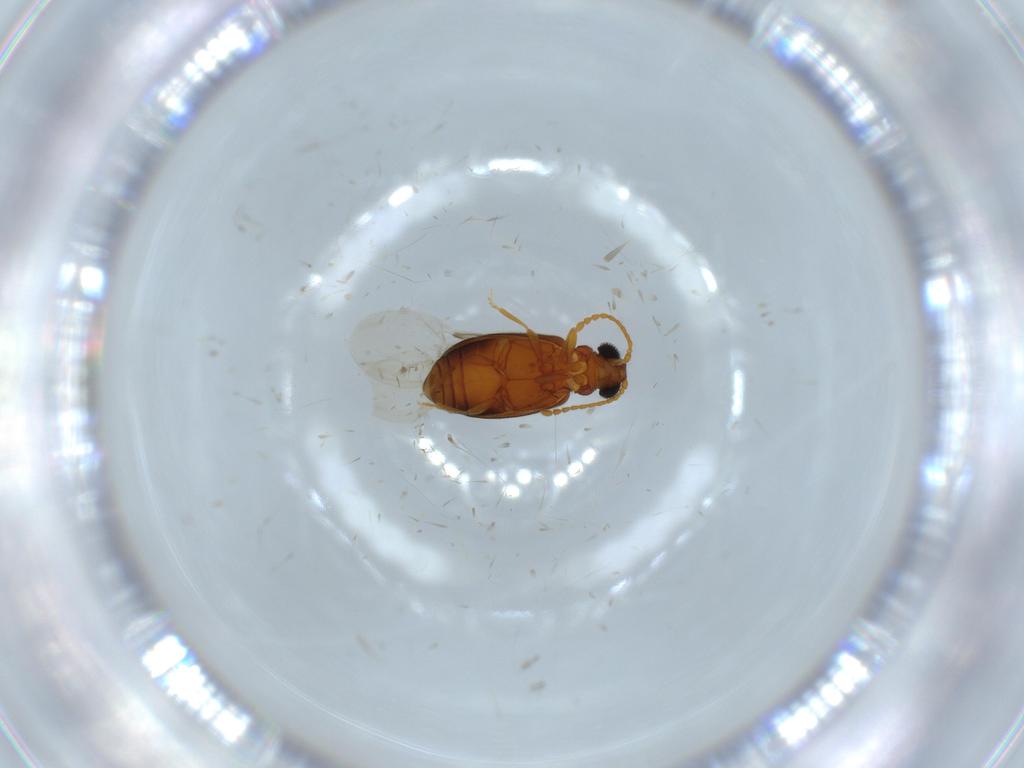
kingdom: Animalia
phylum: Arthropoda
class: Insecta
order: Coleoptera
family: Aderidae
